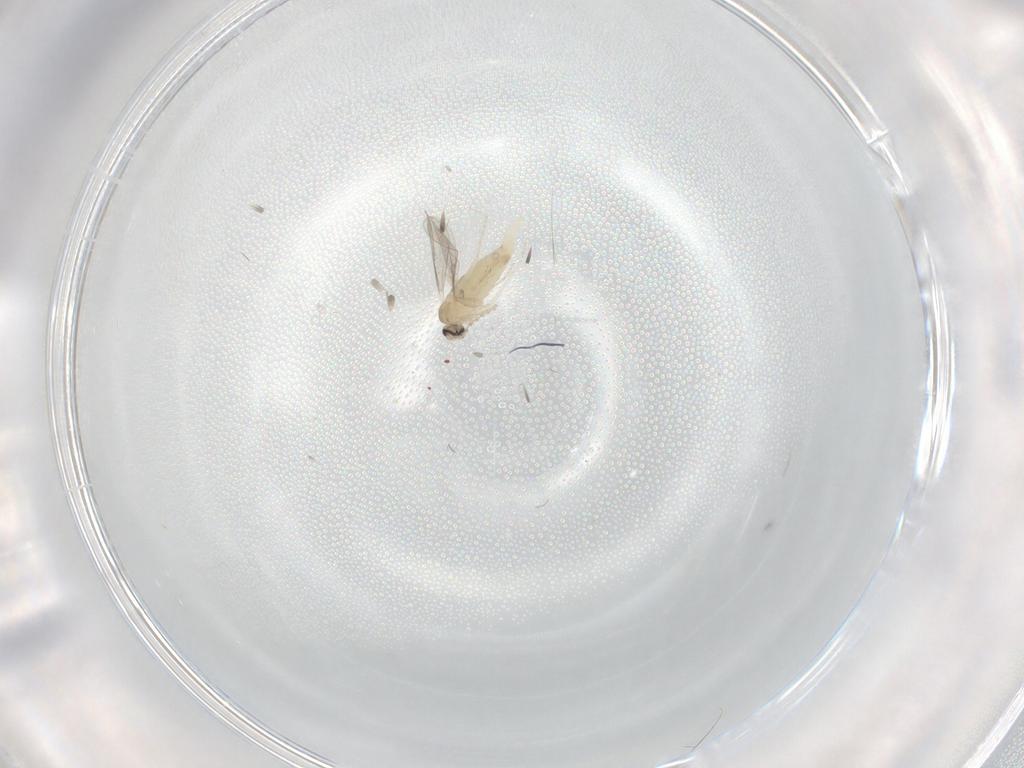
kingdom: Animalia
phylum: Arthropoda
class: Insecta
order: Diptera
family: Cecidomyiidae
